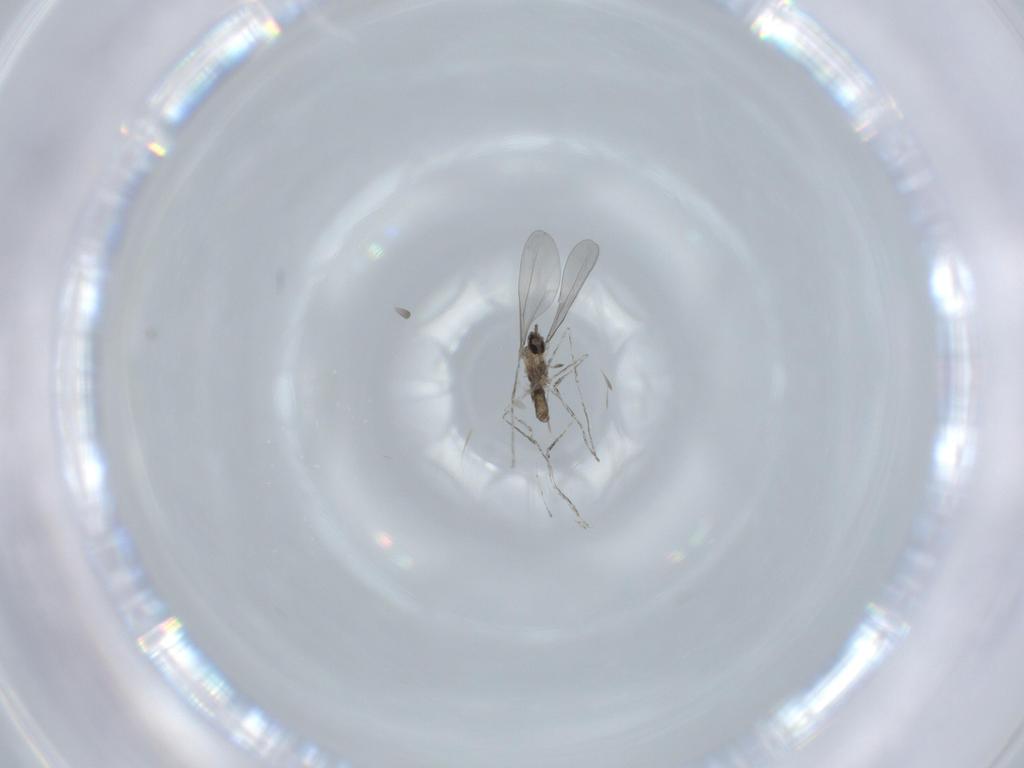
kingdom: Animalia
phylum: Arthropoda
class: Insecta
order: Diptera
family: Cecidomyiidae
